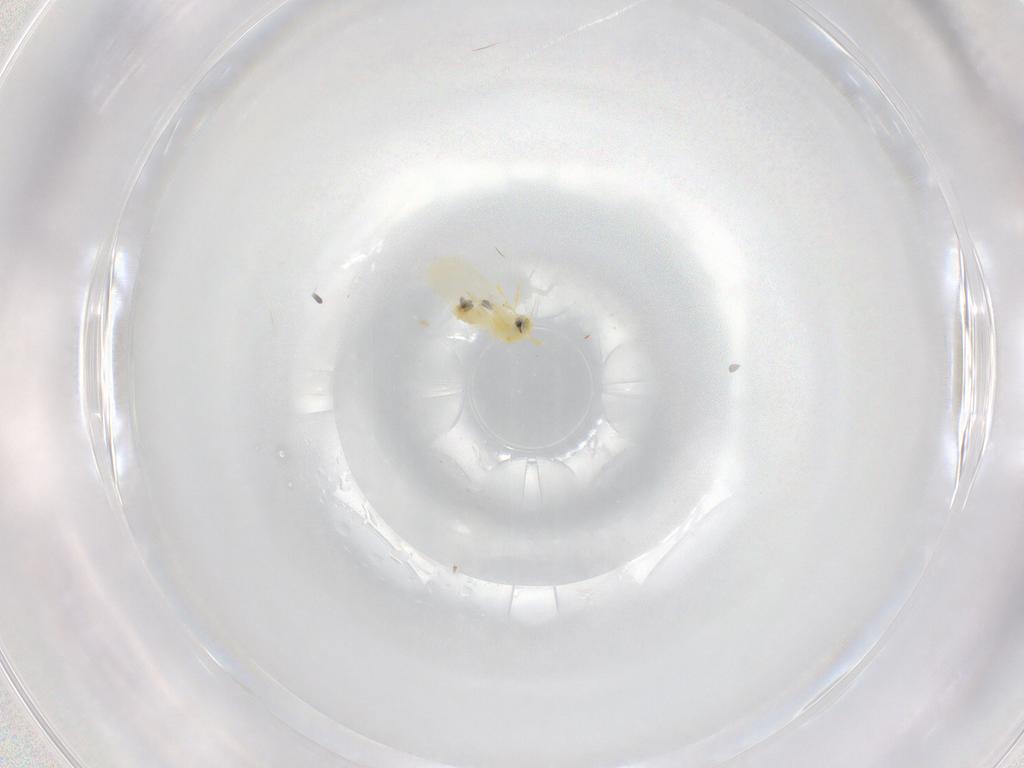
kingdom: Animalia
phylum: Arthropoda
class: Insecta
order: Hemiptera
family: Aleyrodidae
